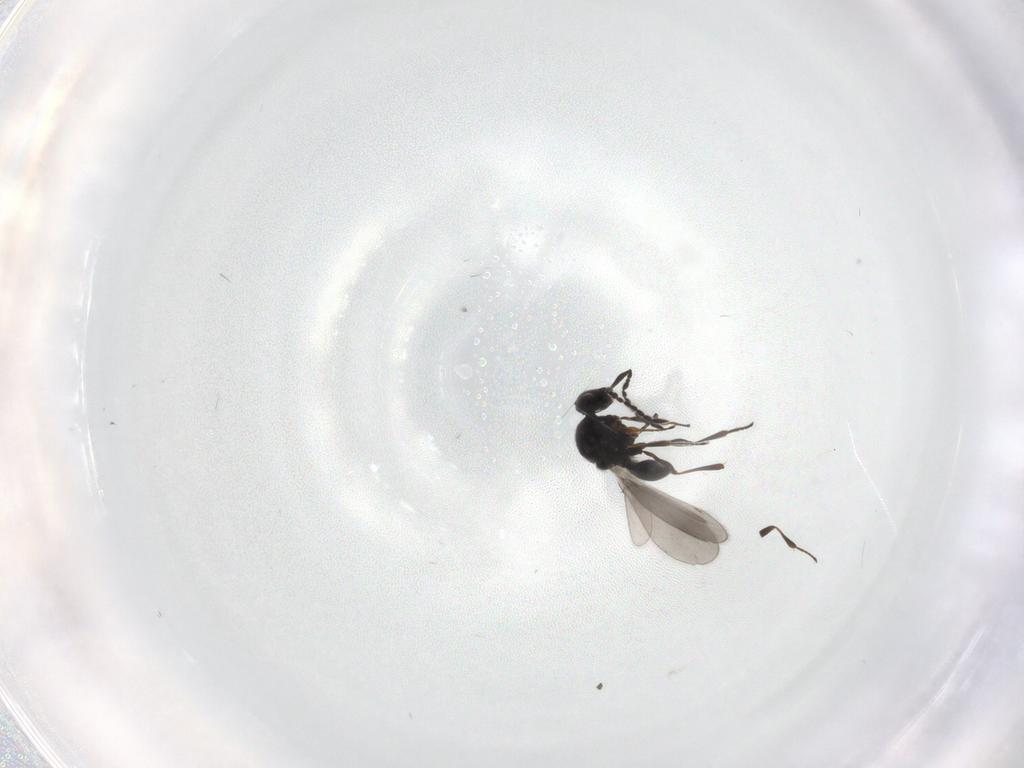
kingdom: Animalia
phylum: Arthropoda
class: Insecta
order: Hymenoptera
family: Platygastridae
